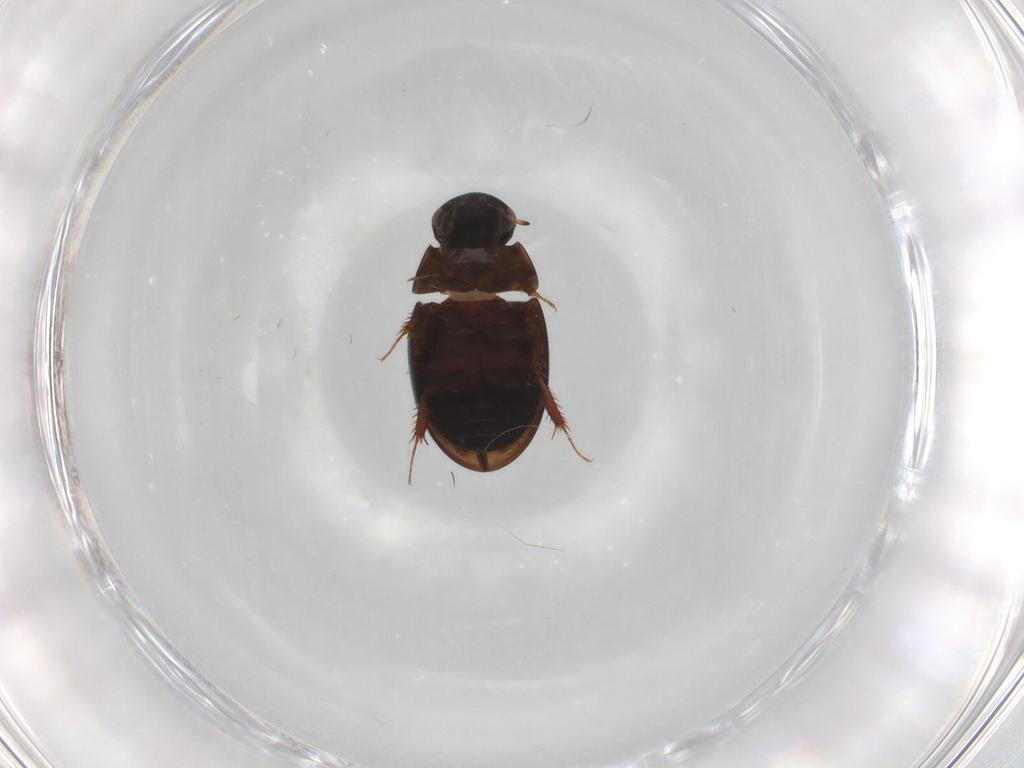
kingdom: Animalia
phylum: Arthropoda
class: Insecta
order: Coleoptera
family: Hydrophilidae
